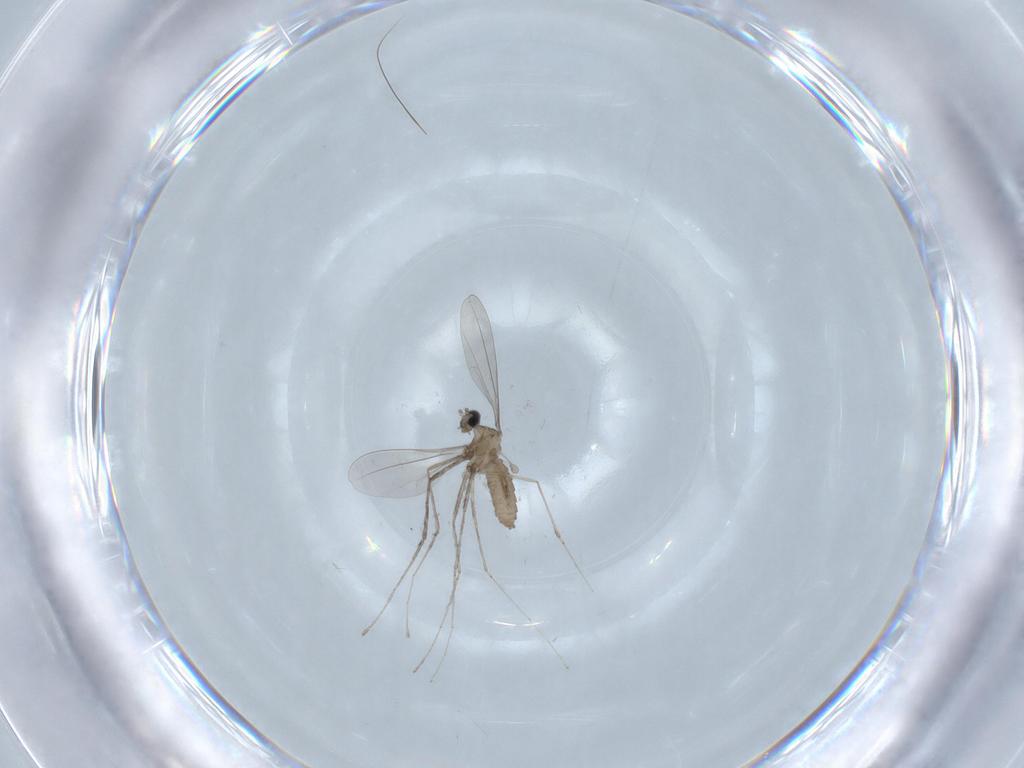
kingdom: Animalia
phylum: Arthropoda
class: Insecta
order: Diptera
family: Cecidomyiidae
